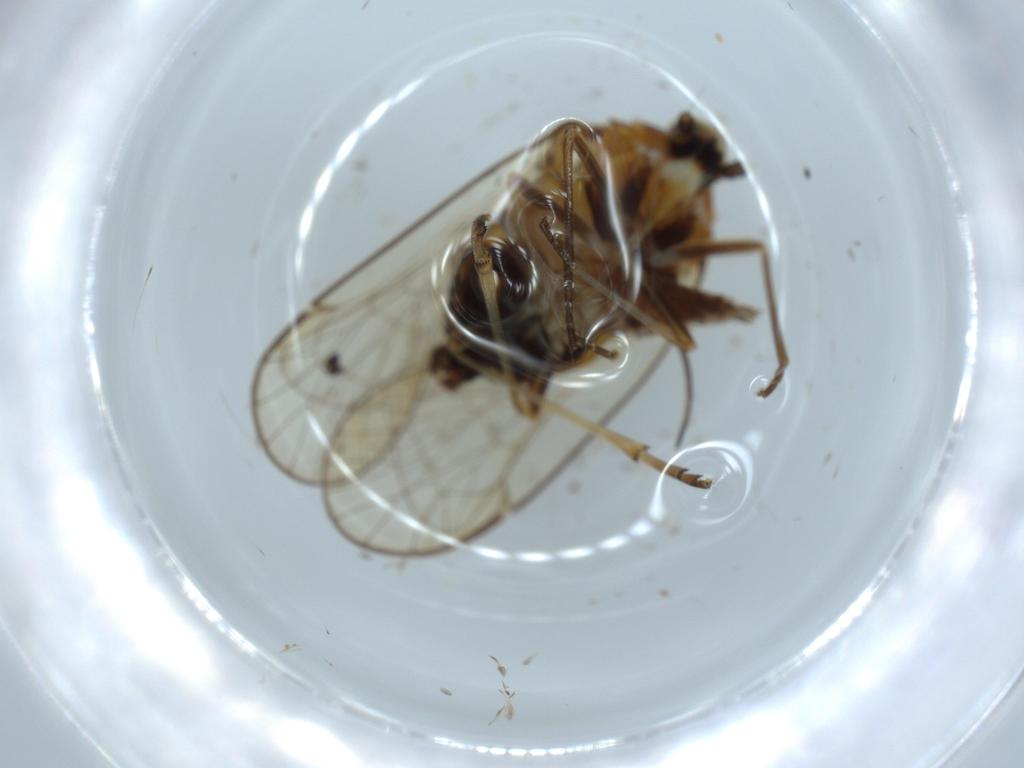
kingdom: Animalia
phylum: Arthropoda
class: Insecta
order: Hemiptera
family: Kinnaridae
